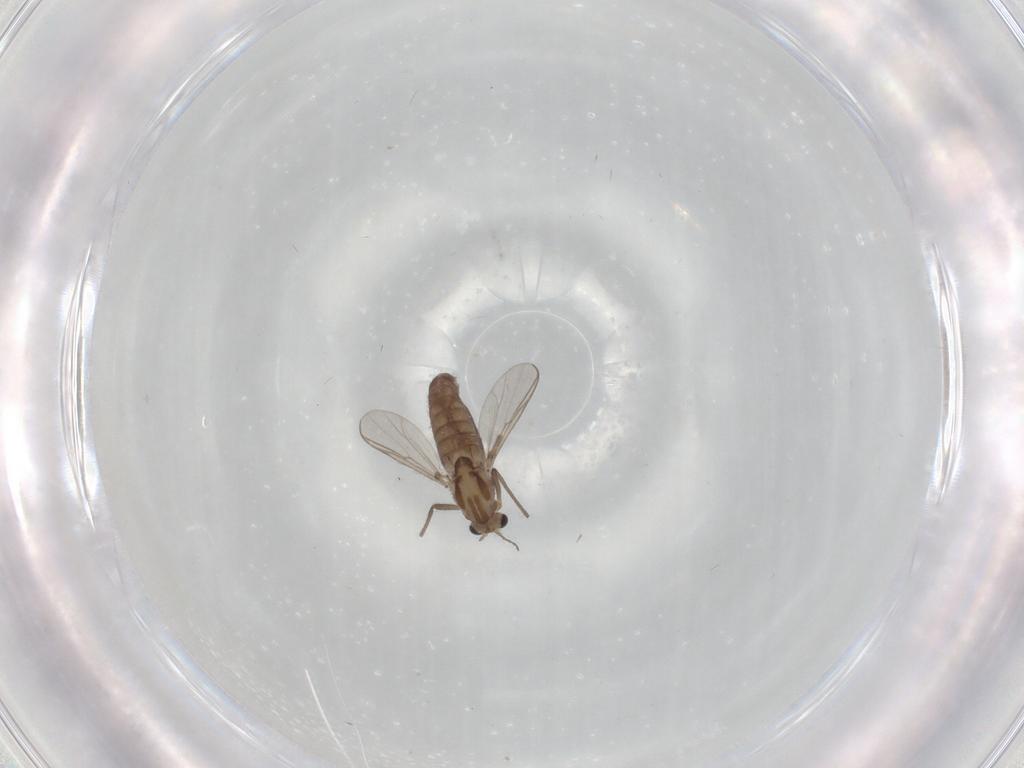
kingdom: Animalia
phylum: Arthropoda
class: Insecta
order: Diptera
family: Chironomidae
